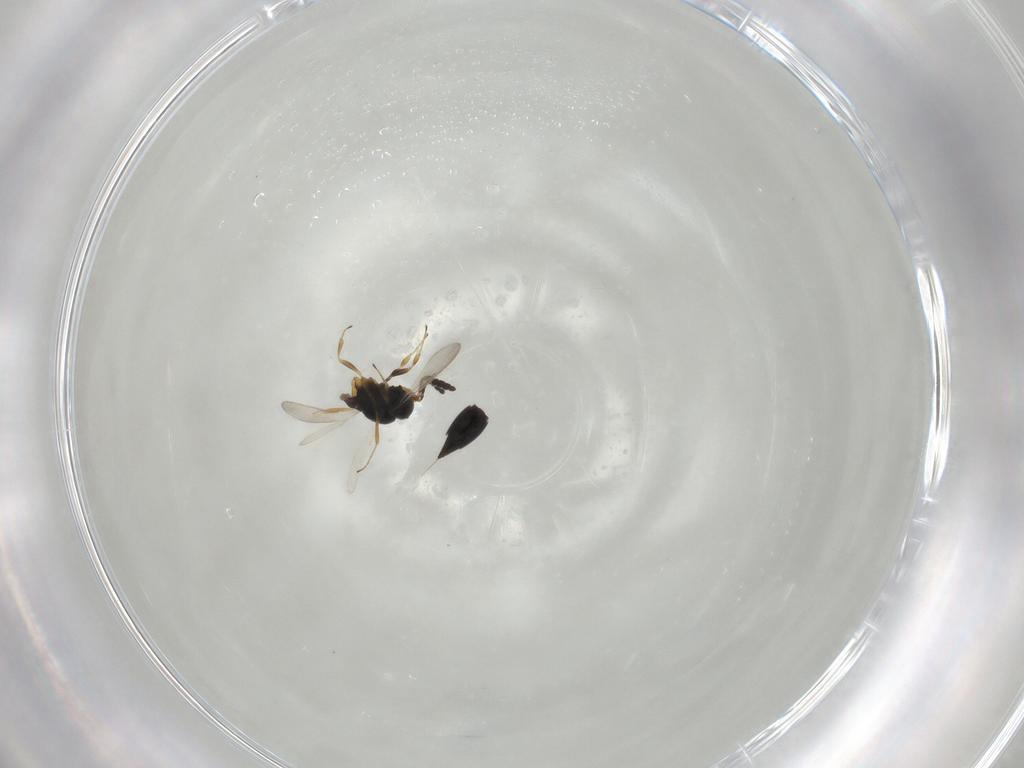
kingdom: Animalia
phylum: Arthropoda
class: Insecta
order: Hymenoptera
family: Scelionidae
